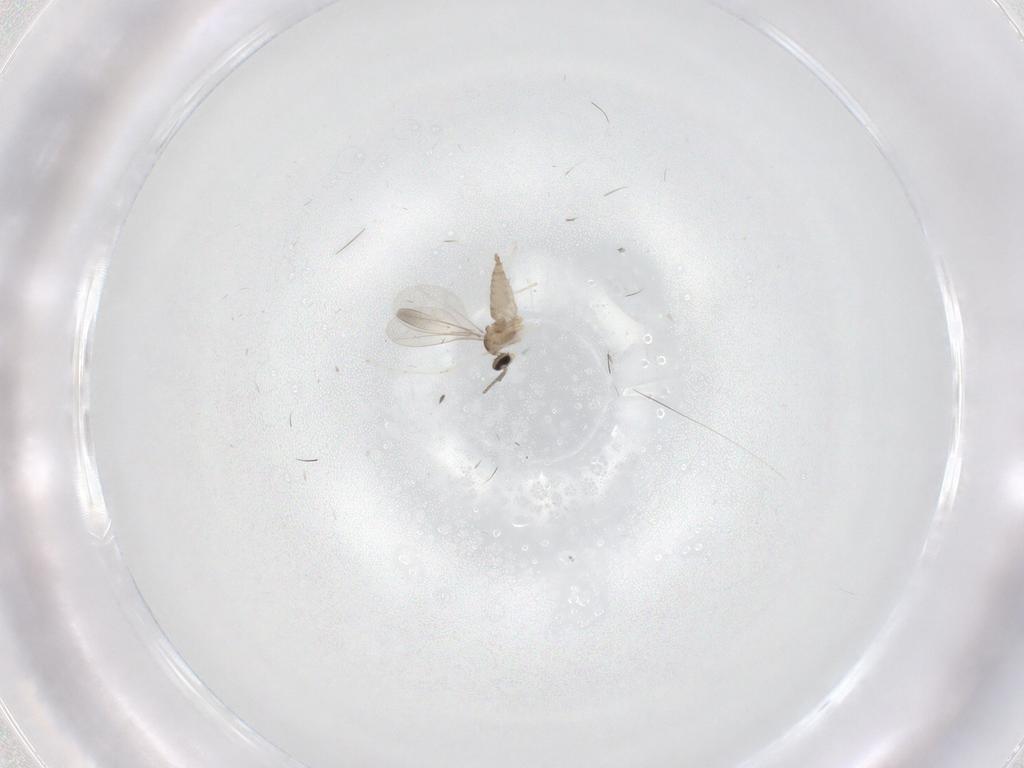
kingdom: Animalia
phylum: Arthropoda
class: Insecta
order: Diptera
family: Cecidomyiidae
